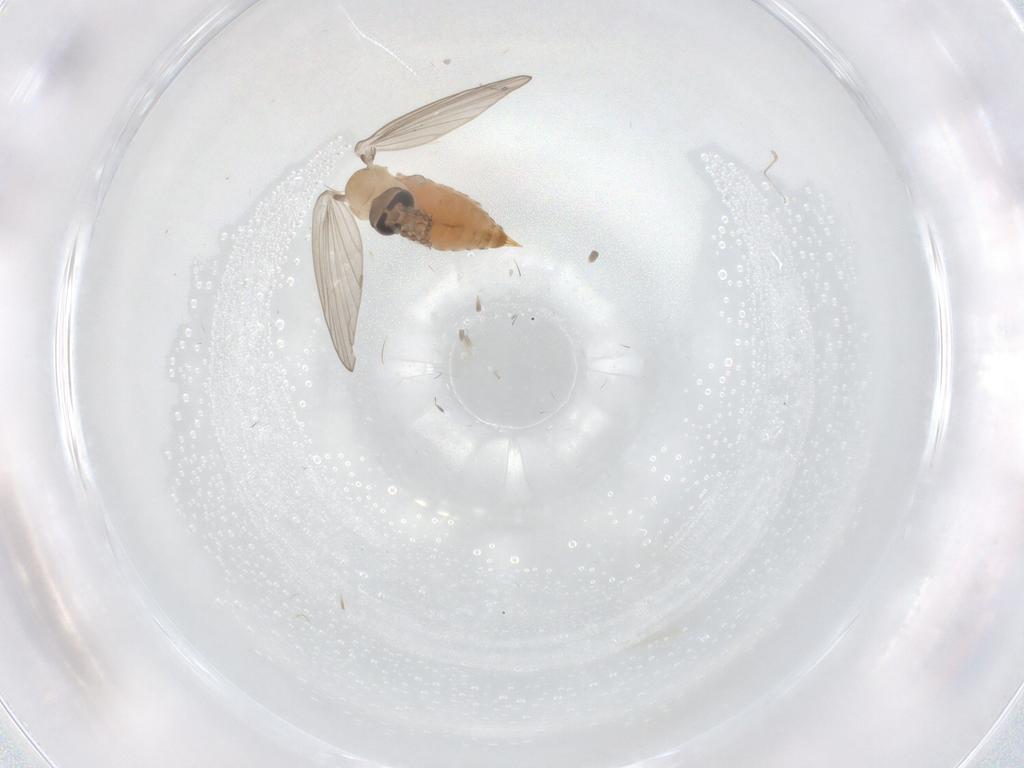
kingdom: Animalia
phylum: Arthropoda
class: Insecta
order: Diptera
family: Psychodidae
